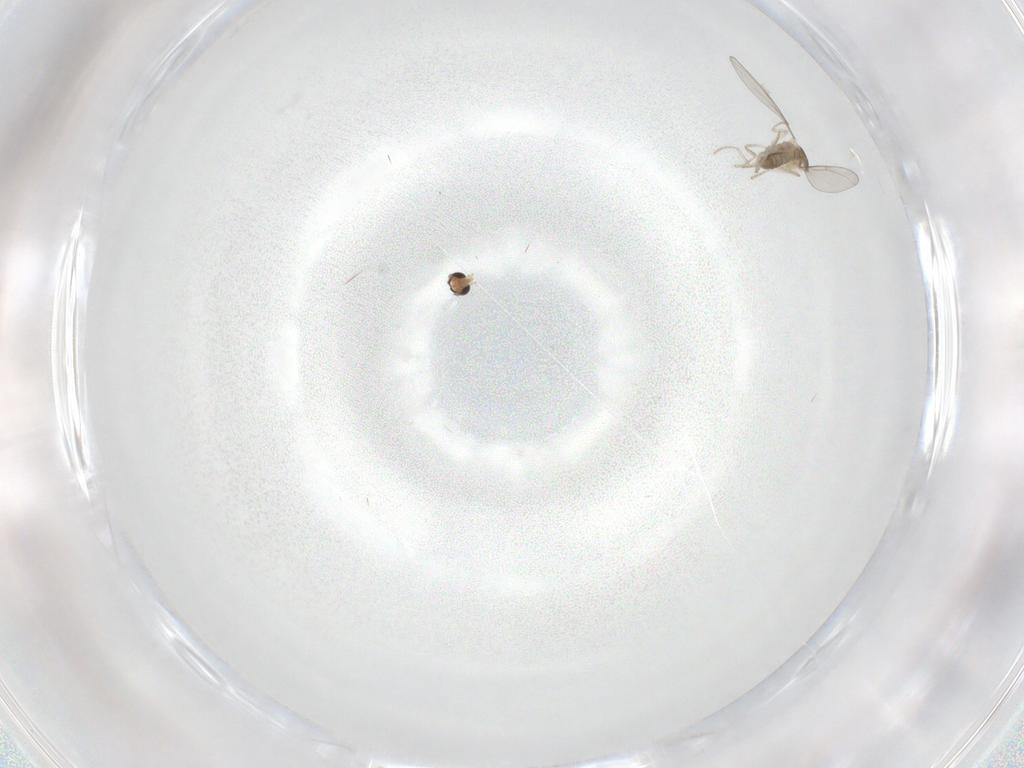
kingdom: Animalia
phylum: Arthropoda
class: Insecta
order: Diptera
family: Cecidomyiidae
